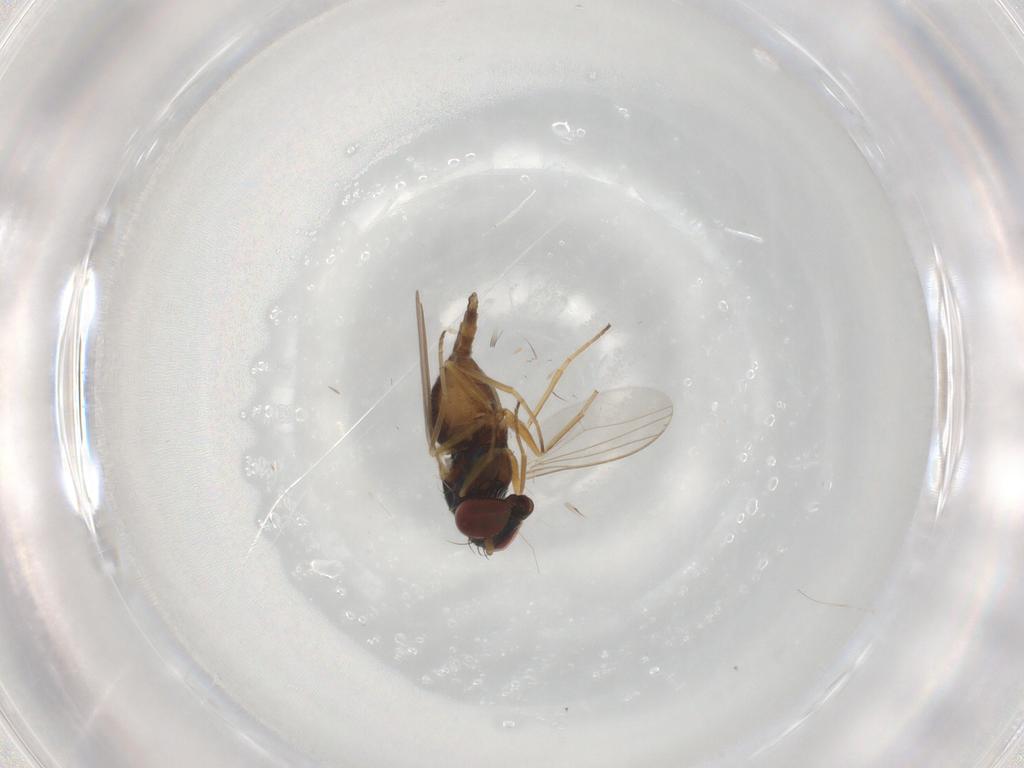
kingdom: Animalia
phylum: Arthropoda
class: Insecta
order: Diptera
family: Dolichopodidae
